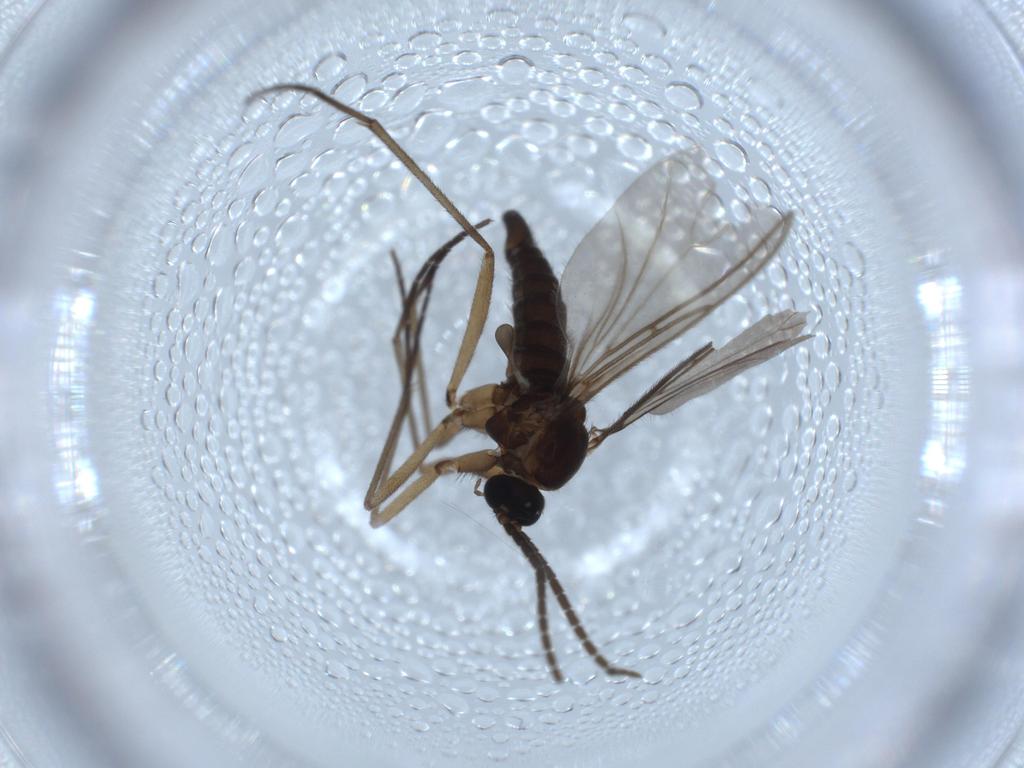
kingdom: Animalia
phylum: Arthropoda
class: Insecta
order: Diptera
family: Sciaridae
